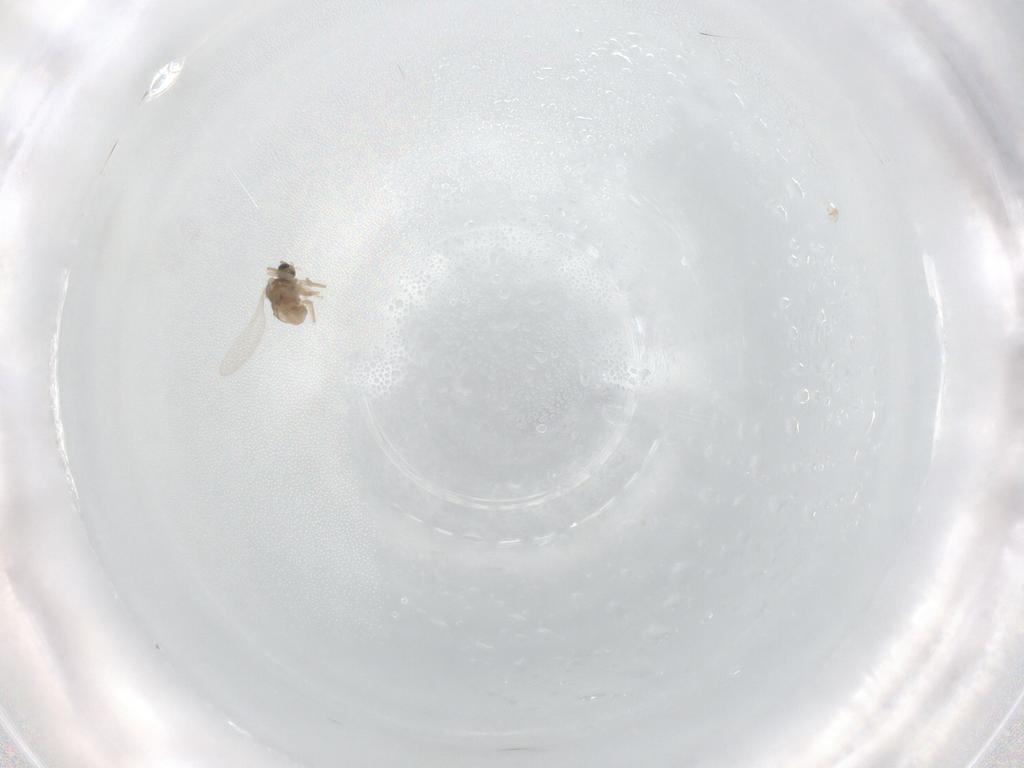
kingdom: Animalia
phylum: Arthropoda
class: Insecta
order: Diptera
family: Cecidomyiidae
